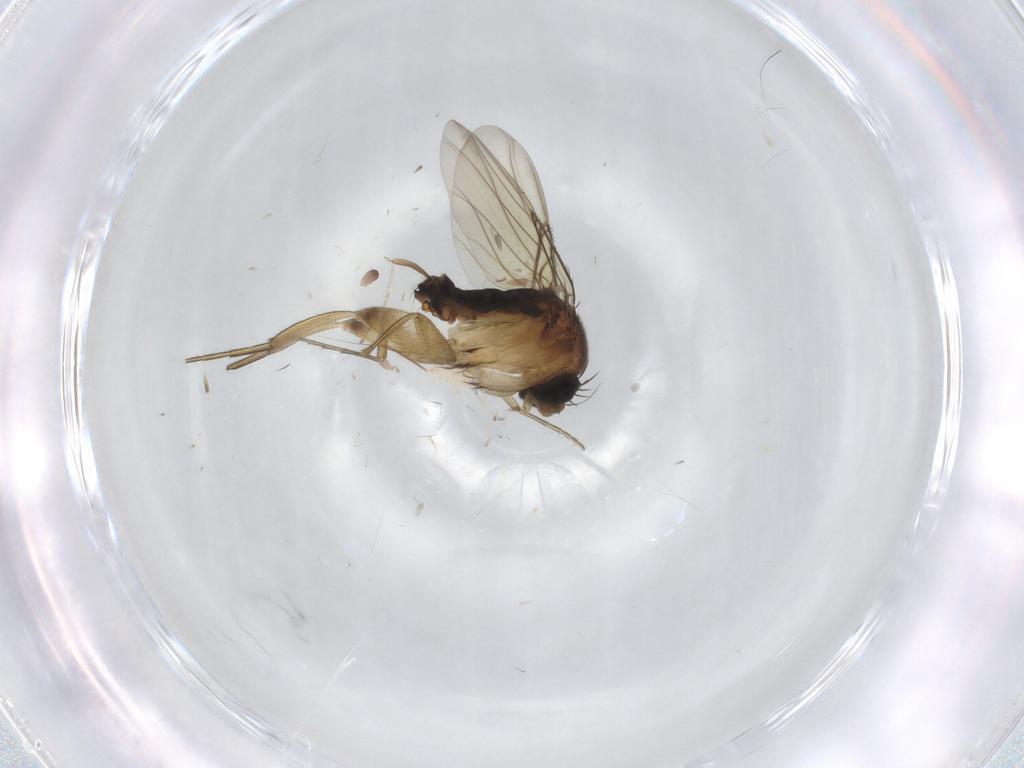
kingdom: Animalia
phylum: Arthropoda
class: Insecta
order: Diptera
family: Phoridae
